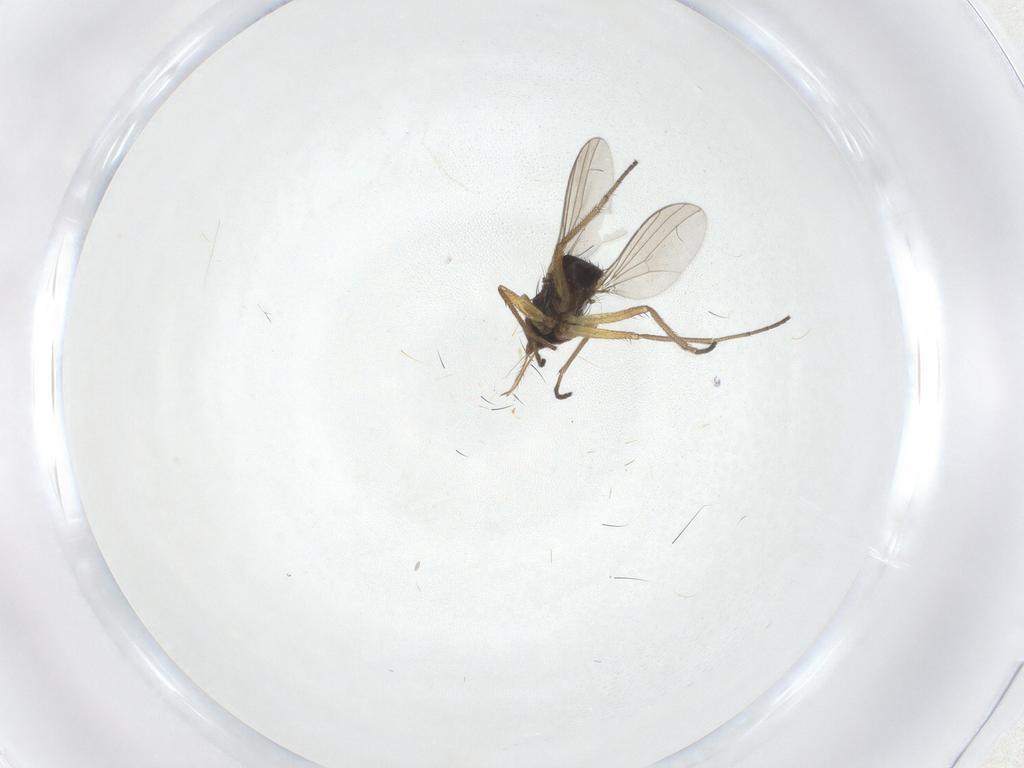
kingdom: Animalia
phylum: Arthropoda
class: Insecta
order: Diptera
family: Dolichopodidae
